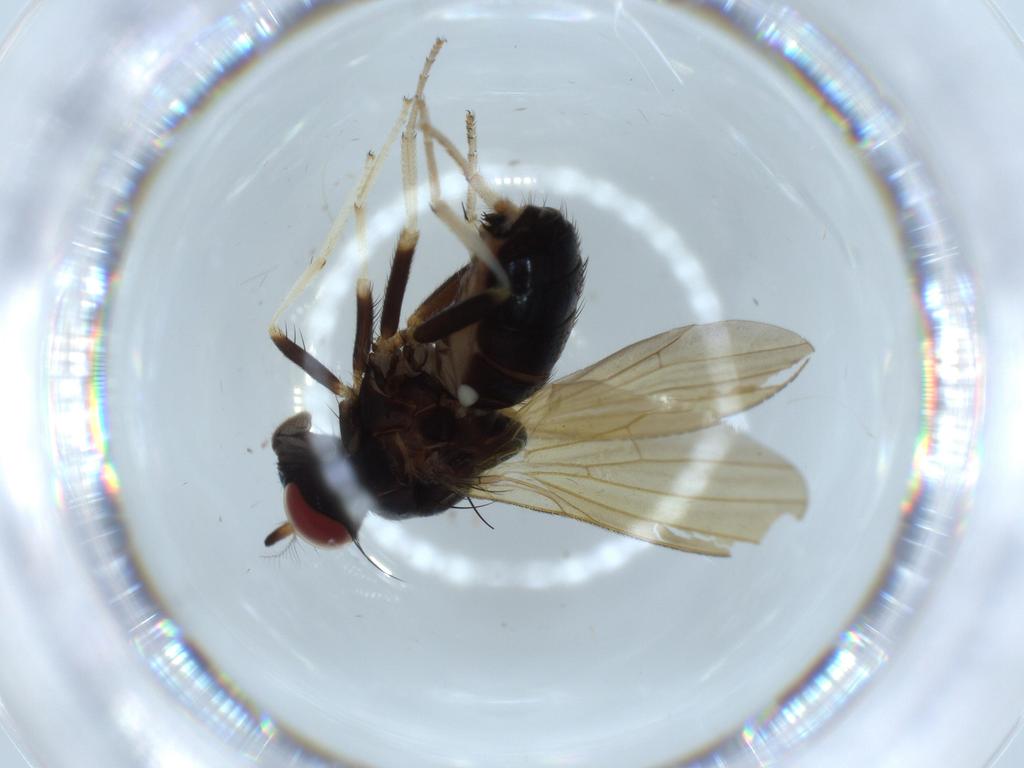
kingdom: Animalia
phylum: Arthropoda
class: Insecta
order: Diptera
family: Sciaridae
